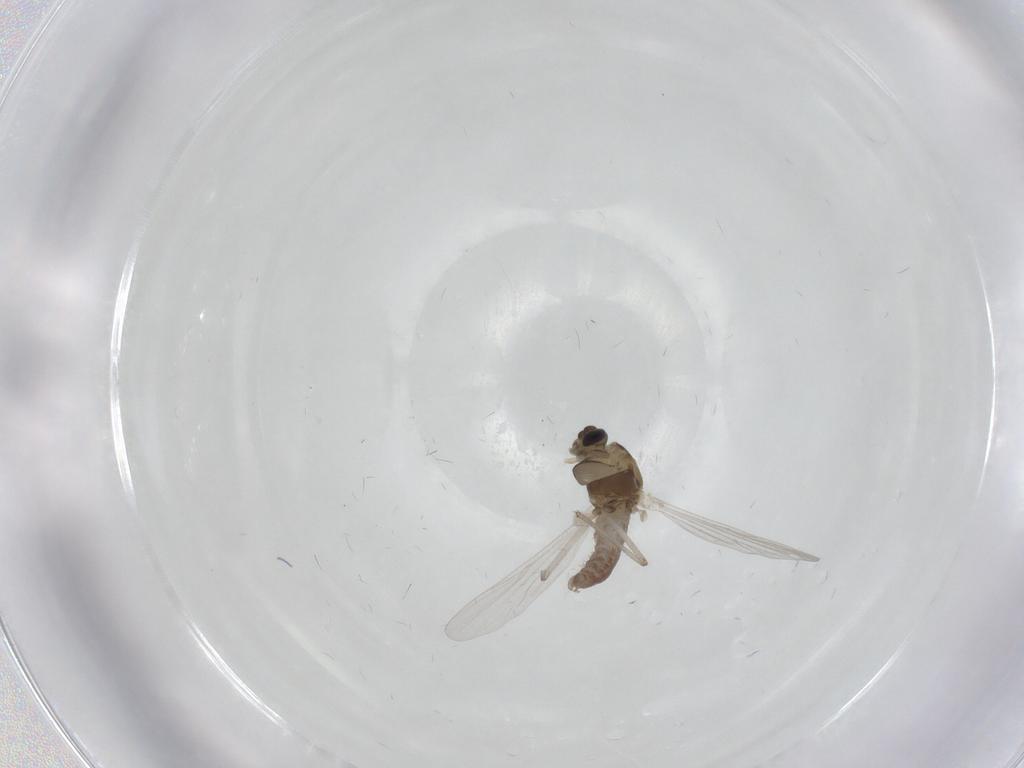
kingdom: Animalia
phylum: Arthropoda
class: Insecta
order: Diptera
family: Chironomidae
